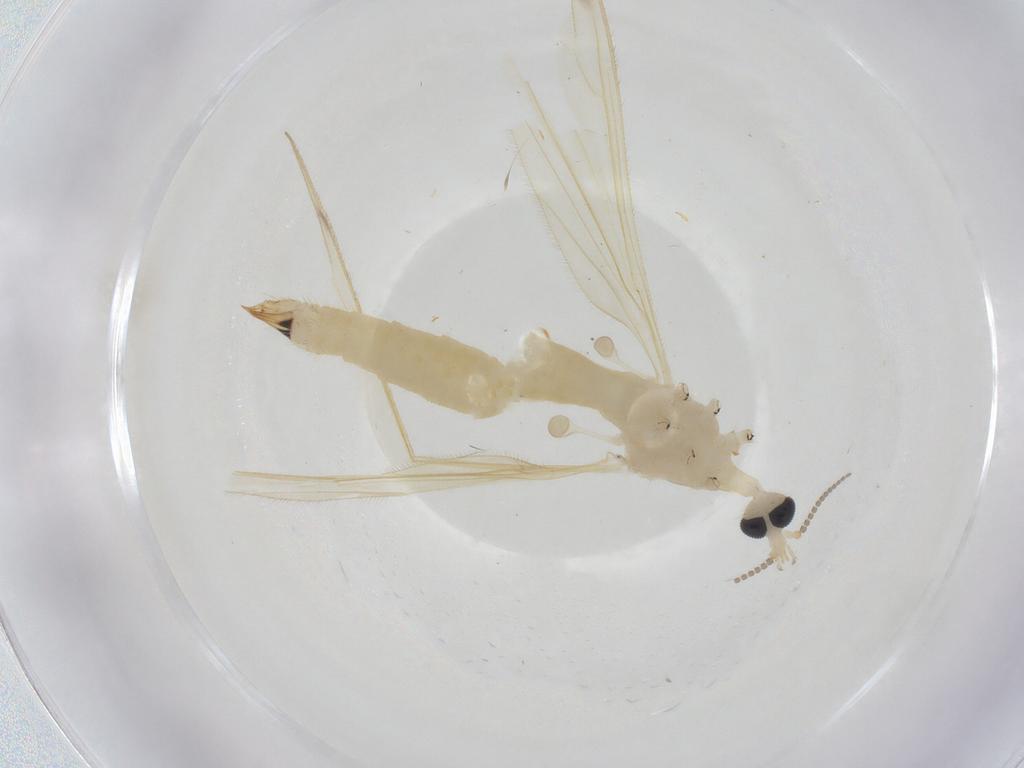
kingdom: Animalia
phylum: Arthropoda
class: Insecta
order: Diptera
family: Limoniidae
